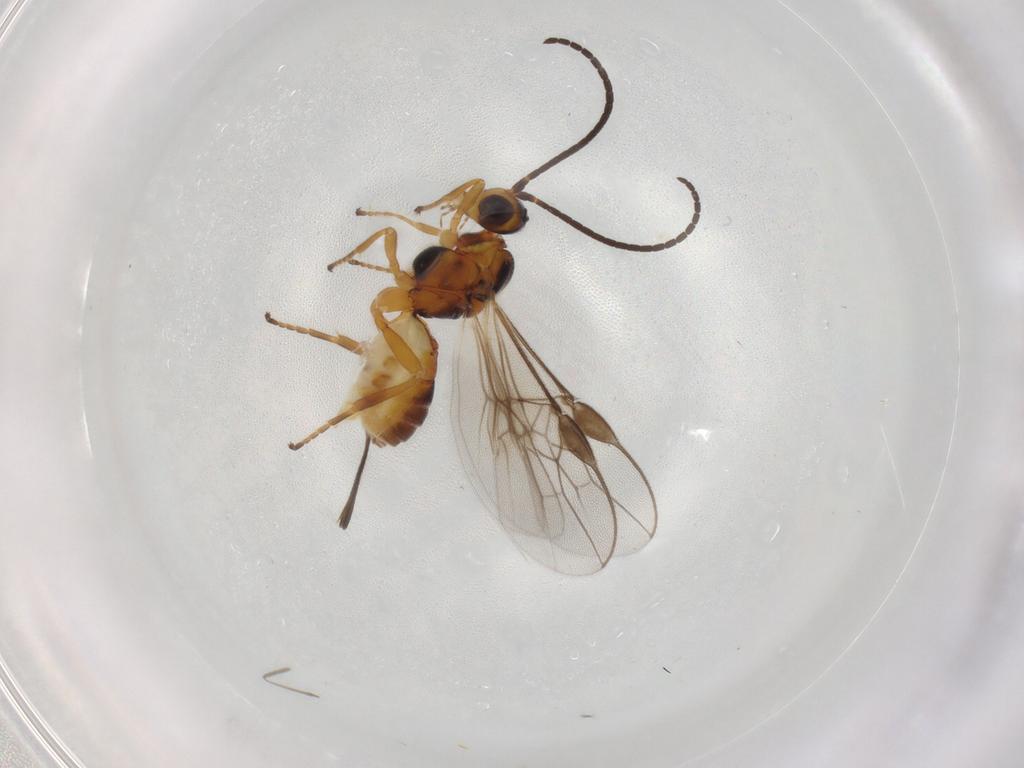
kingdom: Animalia
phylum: Arthropoda
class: Insecta
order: Hymenoptera
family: Braconidae
